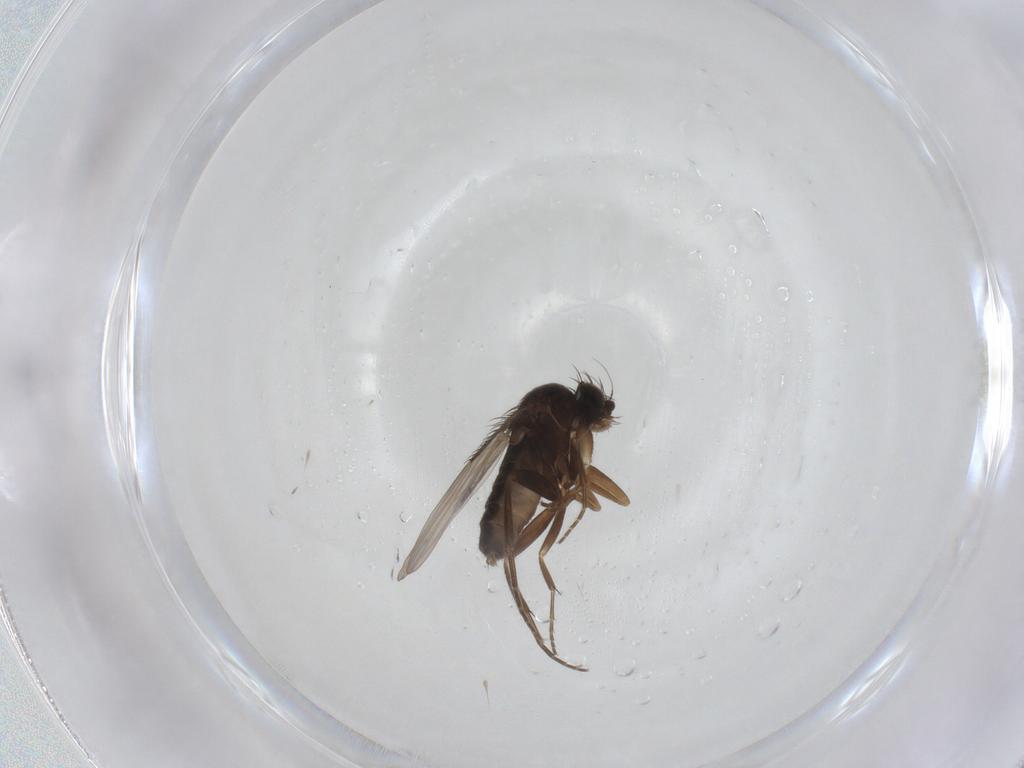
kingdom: Animalia
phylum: Arthropoda
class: Insecta
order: Diptera
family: Phoridae
